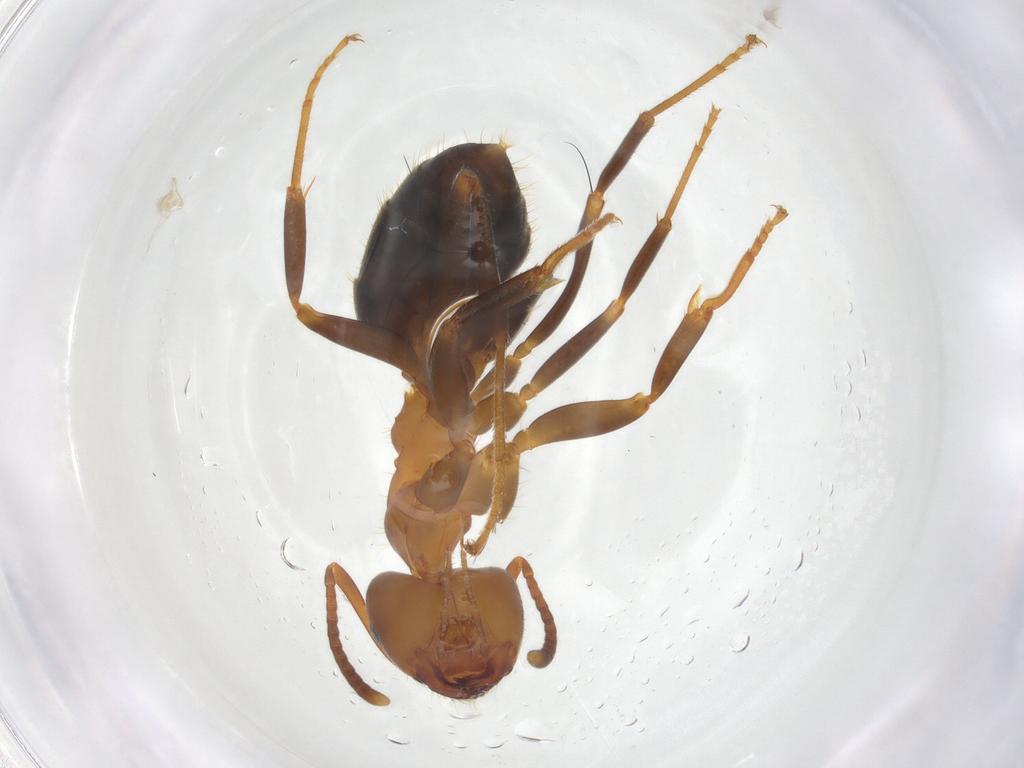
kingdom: Animalia
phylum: Arthropoda
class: Insecta
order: Hymenoptera
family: Formicidae
